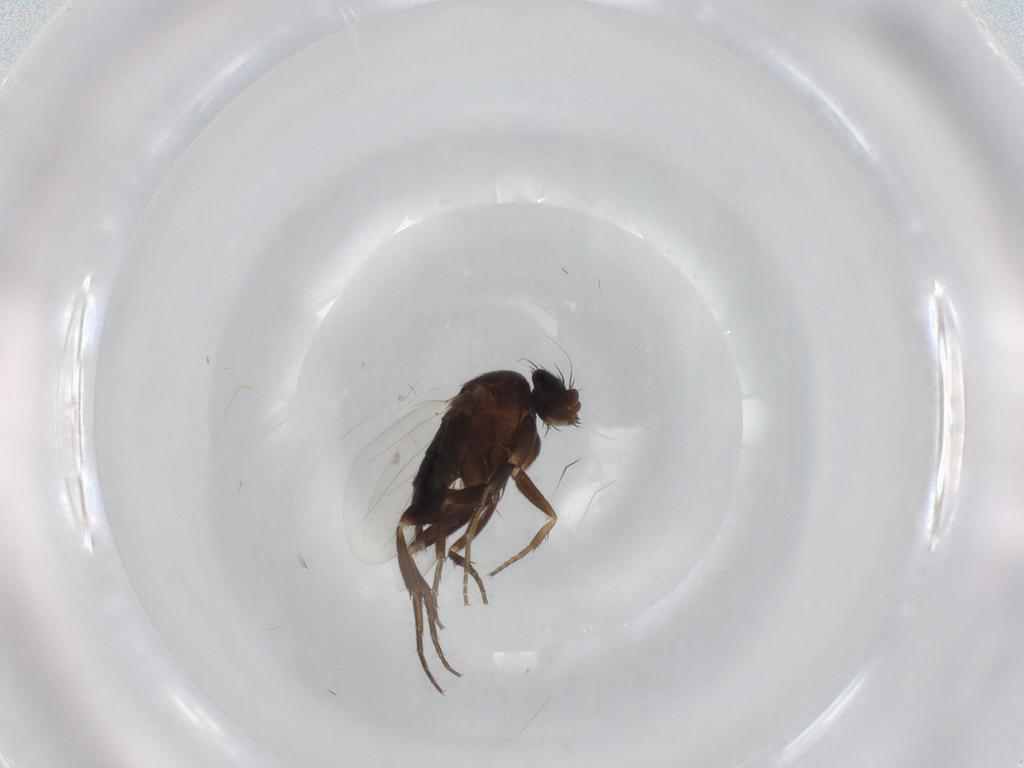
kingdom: Animalia
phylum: Arthropoda
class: Insecta
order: Diptera
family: Phoridae
